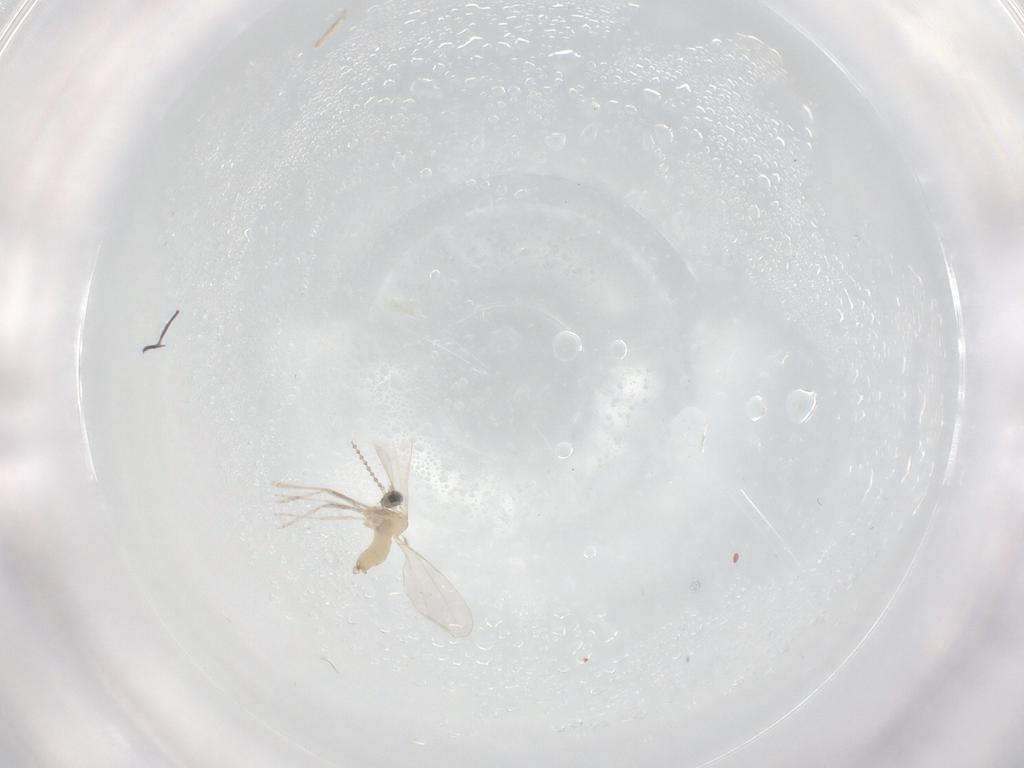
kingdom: Animalia
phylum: Arthropoda
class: Insecta
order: Diptera
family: Cecidomyiidae
